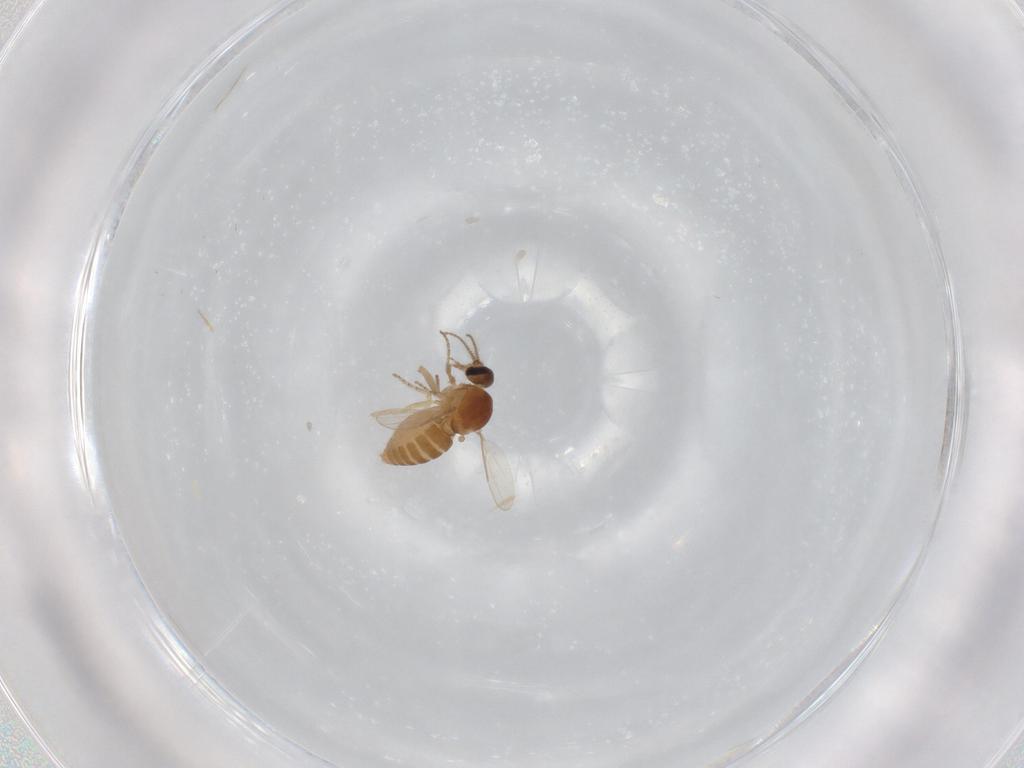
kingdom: Animalia
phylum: Arthropoda
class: Insecta
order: Diptera
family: Ceratopogonidae
